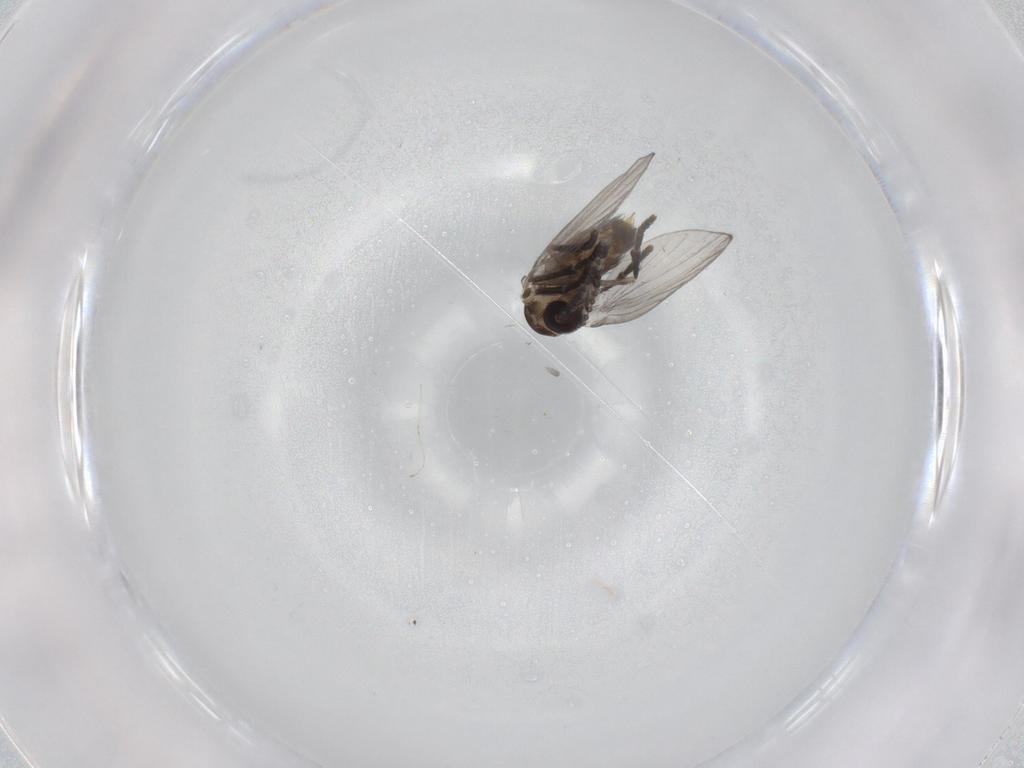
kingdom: Animalia
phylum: Arthropoda
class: Insecta
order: Diptera
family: Psychodidae
